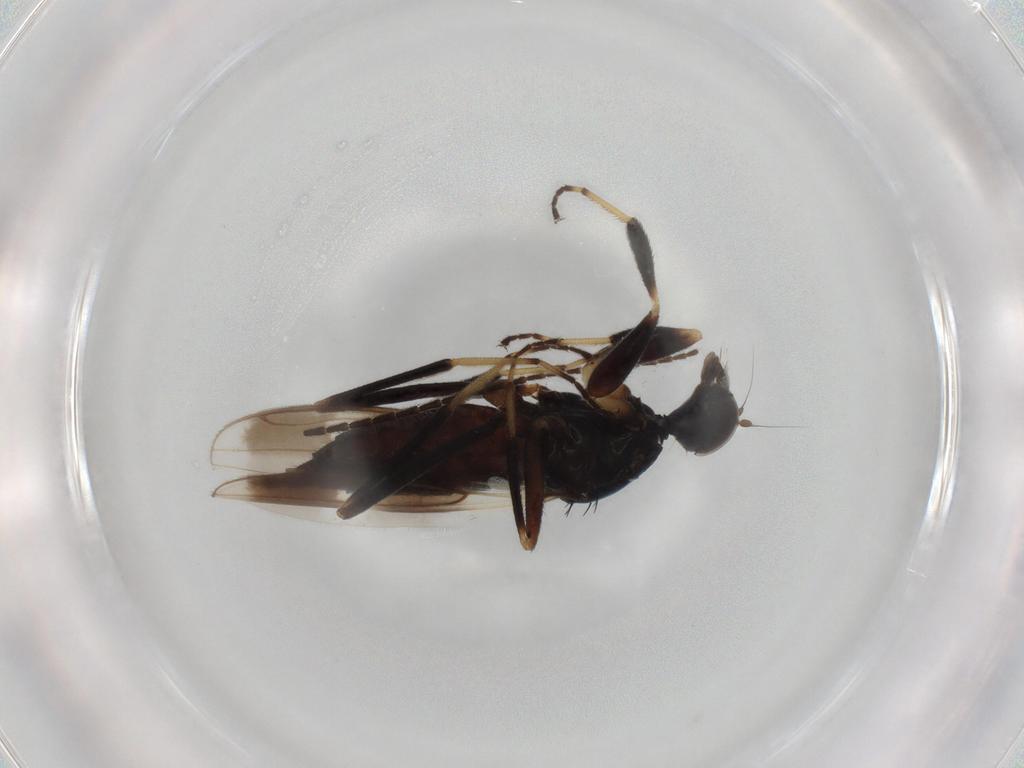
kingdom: Animalia
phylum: Arthropoda
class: Insecta
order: Diptera
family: Hybotidae
